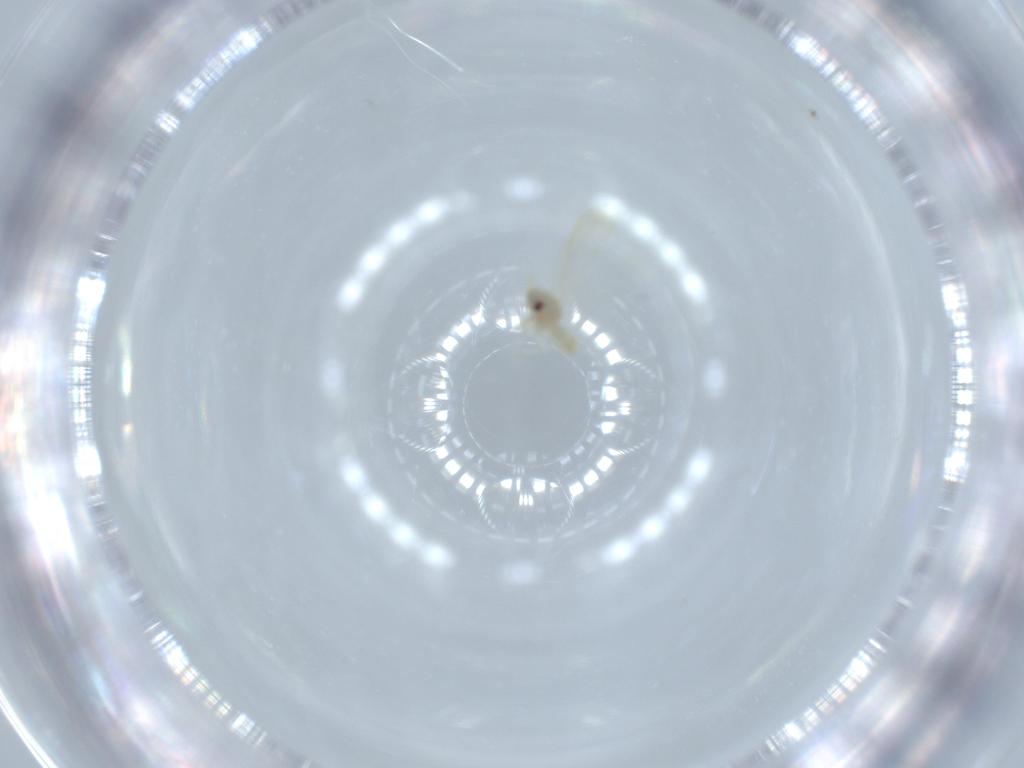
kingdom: Animalia
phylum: Arthropoda
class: Insecta
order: Hemiptera
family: Aleyrodidae
